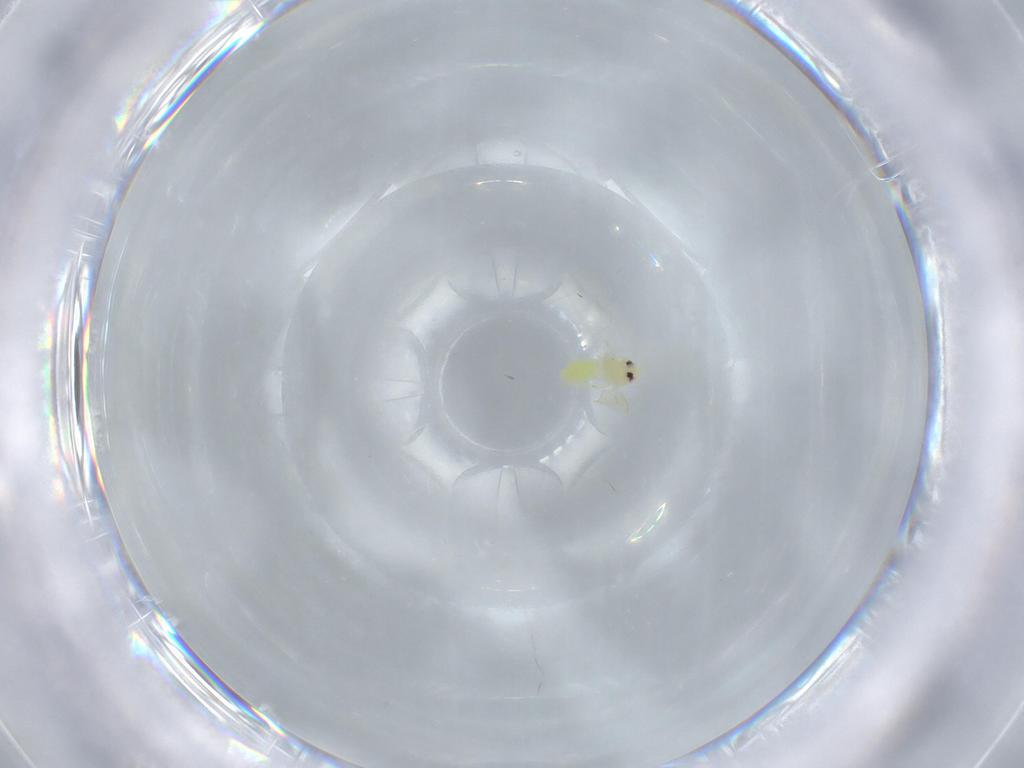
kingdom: Animalia
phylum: Arthropoda
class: Insecta
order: Hemiptera
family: Aleyrodidae
